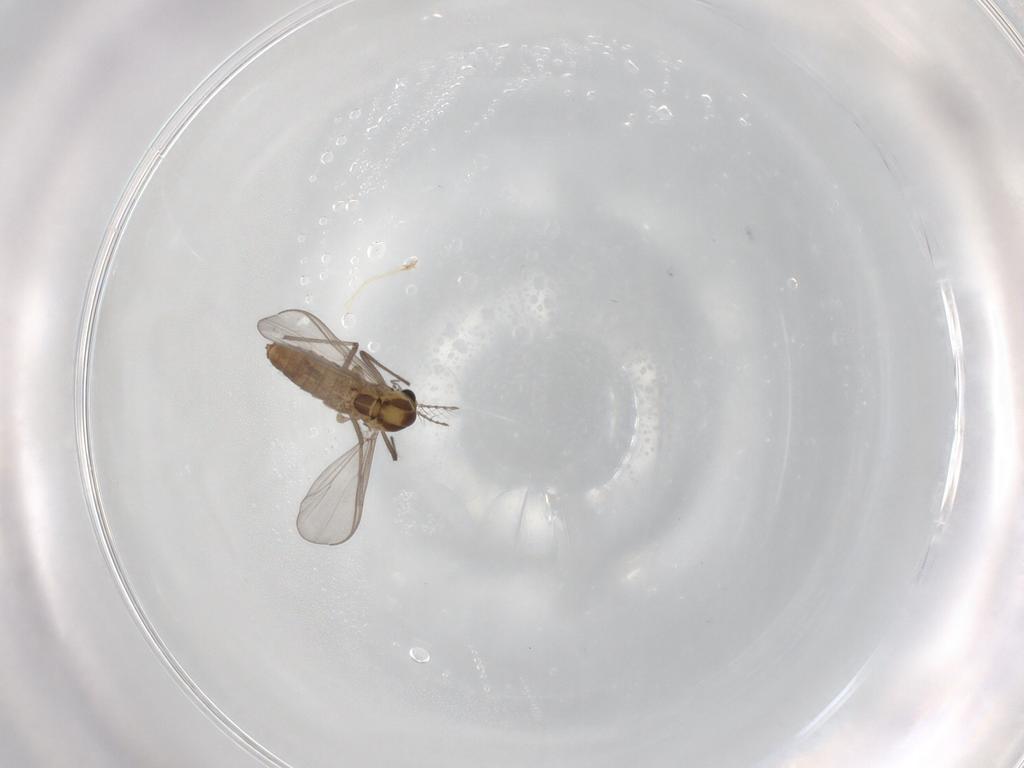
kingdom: Animalia
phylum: Arthropoda
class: Insecta
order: Diptera
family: Chironomidae
